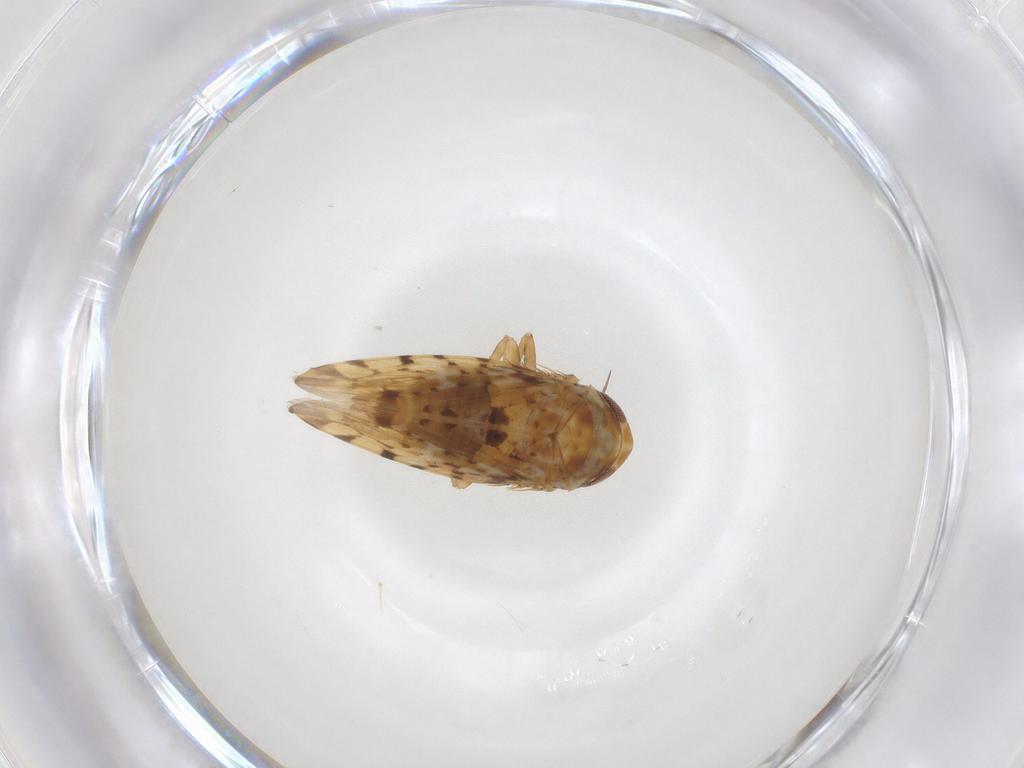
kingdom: Animalia
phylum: Arthropoda
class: Insecta
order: Hemiptera
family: Cicadellidae
